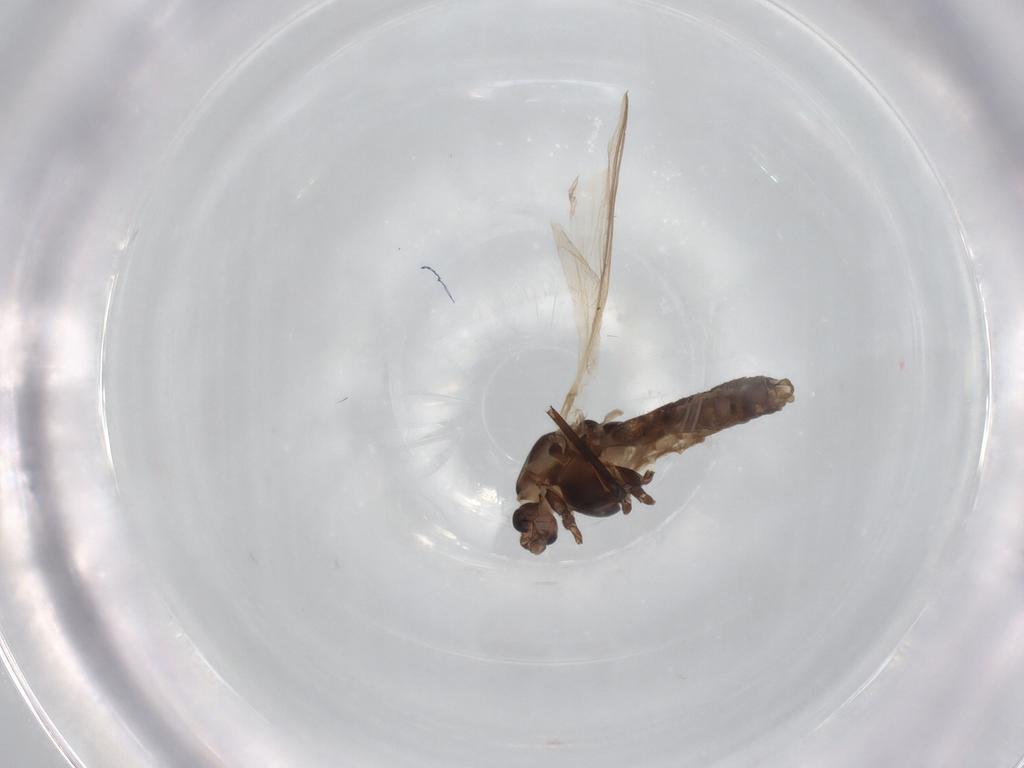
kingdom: Animalia
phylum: Arthropoda
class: Insecta
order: Diptera
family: Chironomidae
